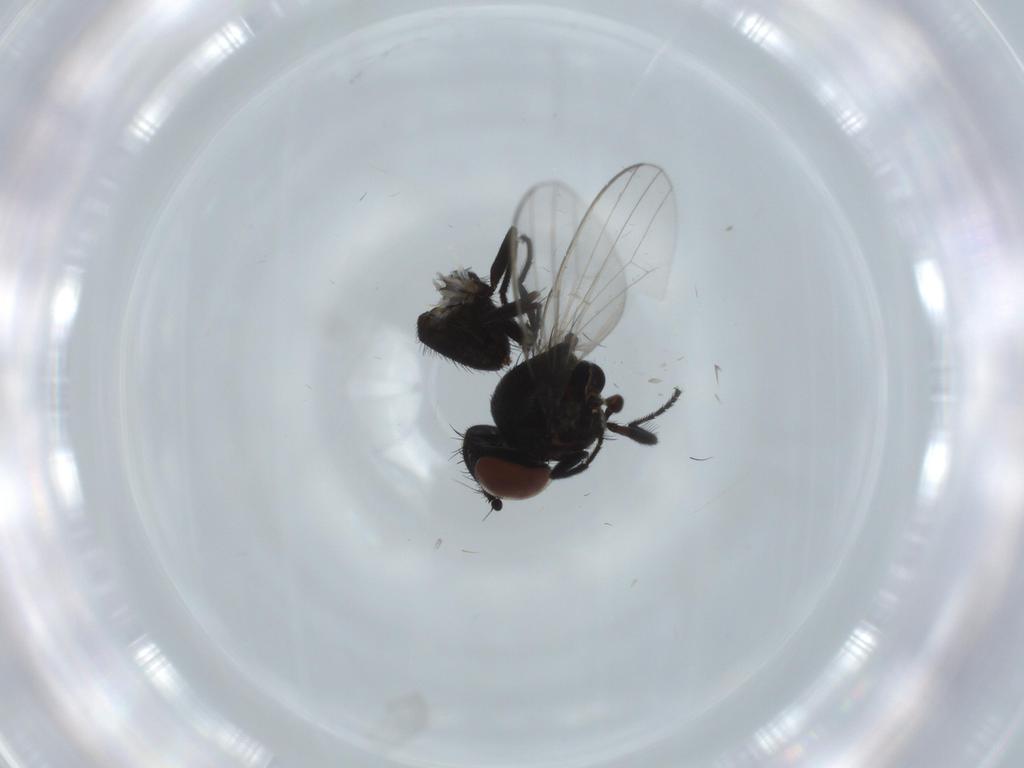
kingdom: Animalia
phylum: Arthropoda
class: Insecta
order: Diptera
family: Milichiidae
